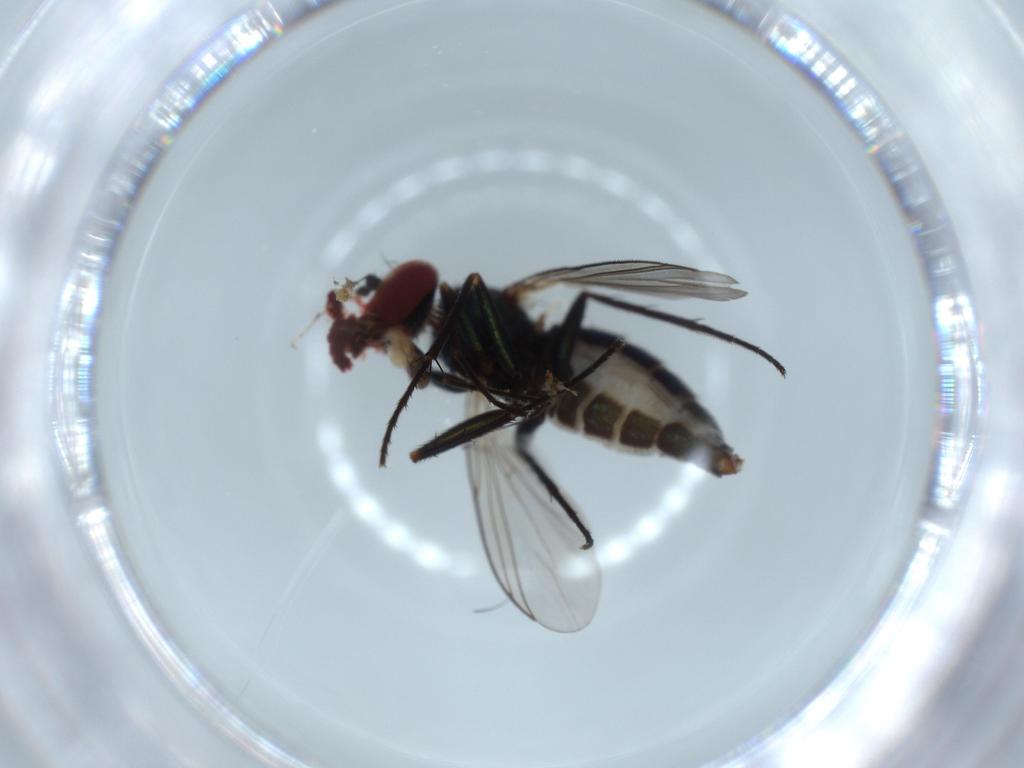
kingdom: Animalia
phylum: Arthropoda
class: Insecta
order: Diptera
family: Dolichopodidae
